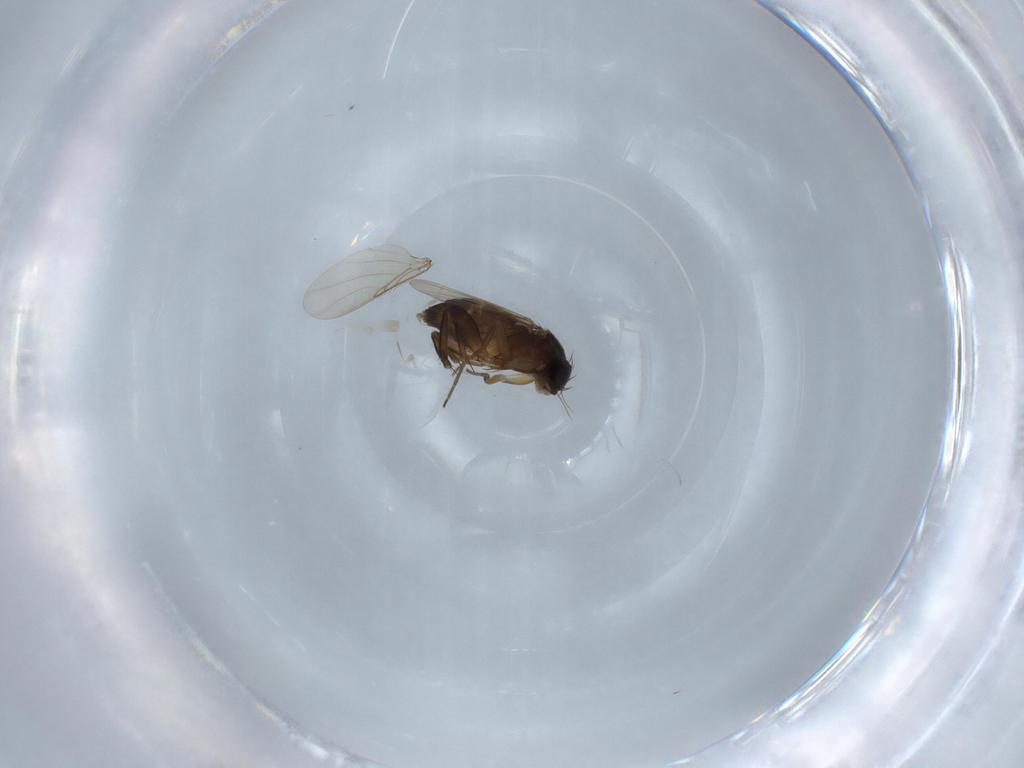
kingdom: Animalia
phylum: Arthropoda
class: Insecta
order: Diptera
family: Phoridae
